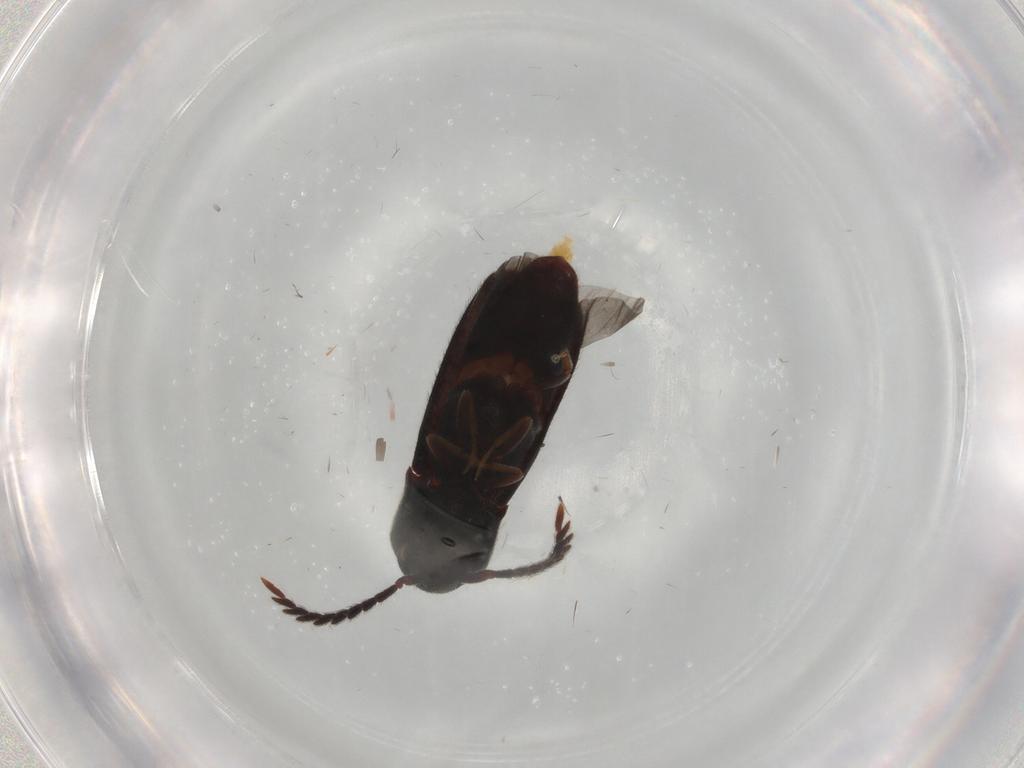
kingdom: Animalia
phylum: Arthropoda
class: Insecta
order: Coleoptera
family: Eucnemidae
